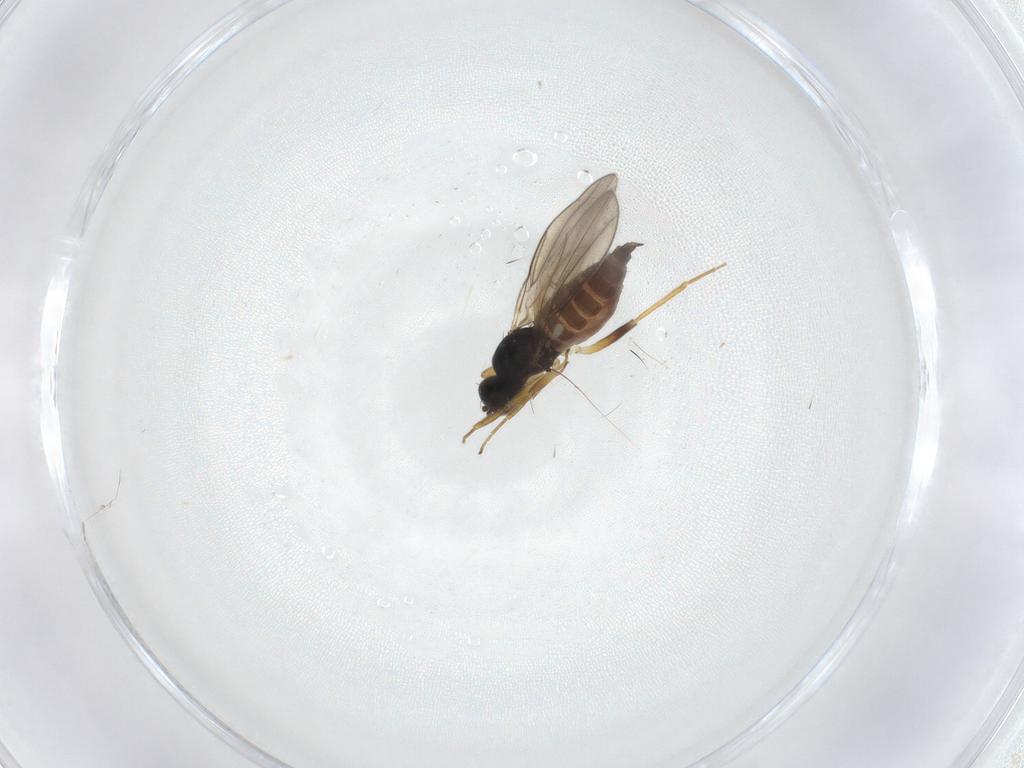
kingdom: Animalia
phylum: Arthropoda
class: Insecta
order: Diptera
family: Hybotidae
